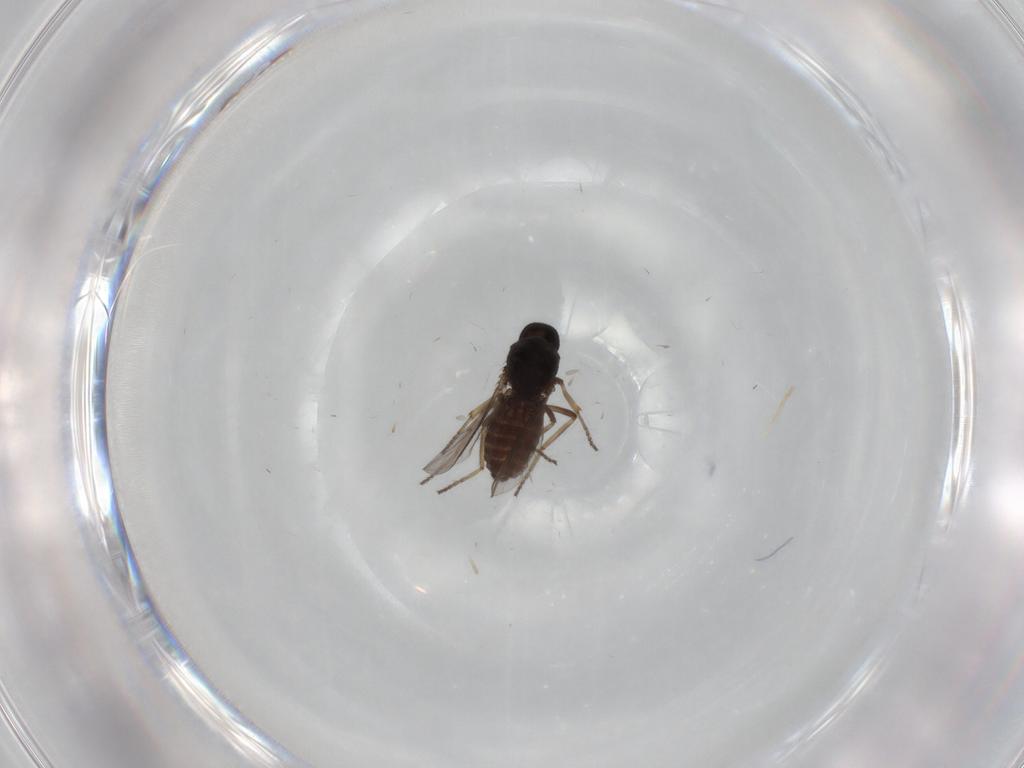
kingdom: Animalia
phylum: Arthropoda
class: Insecta
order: Diptera
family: Ceratopogonidae
